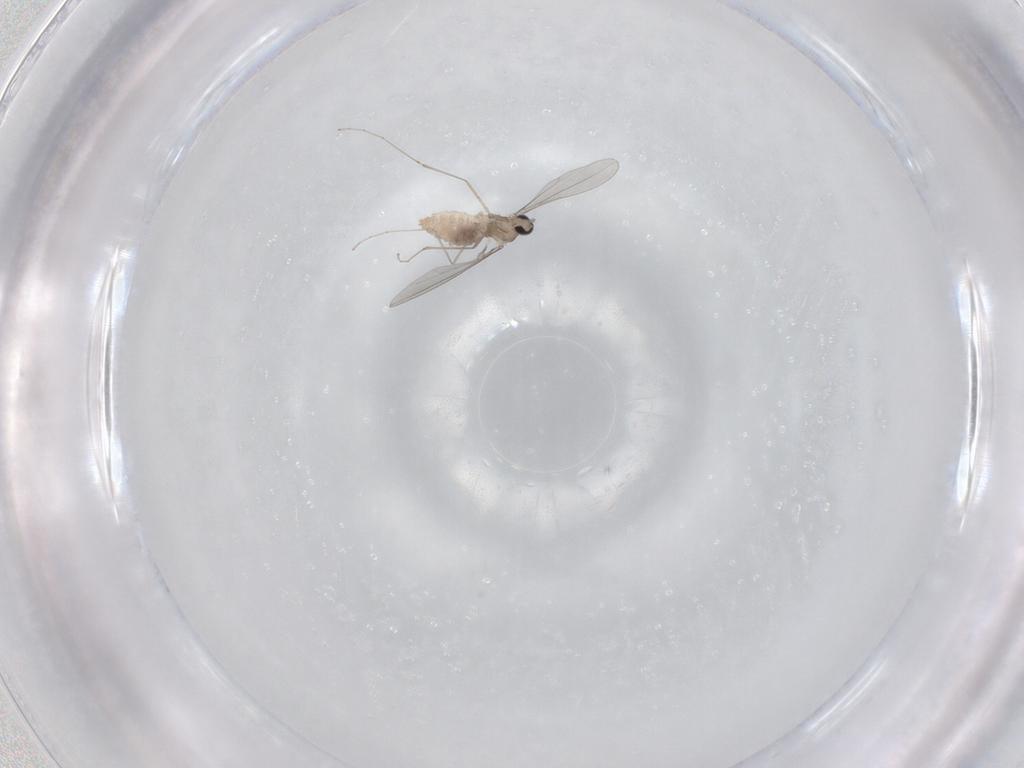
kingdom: Animalia
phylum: Arthropoda
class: Insecta
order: Diptera
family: Cecidomyiidae
